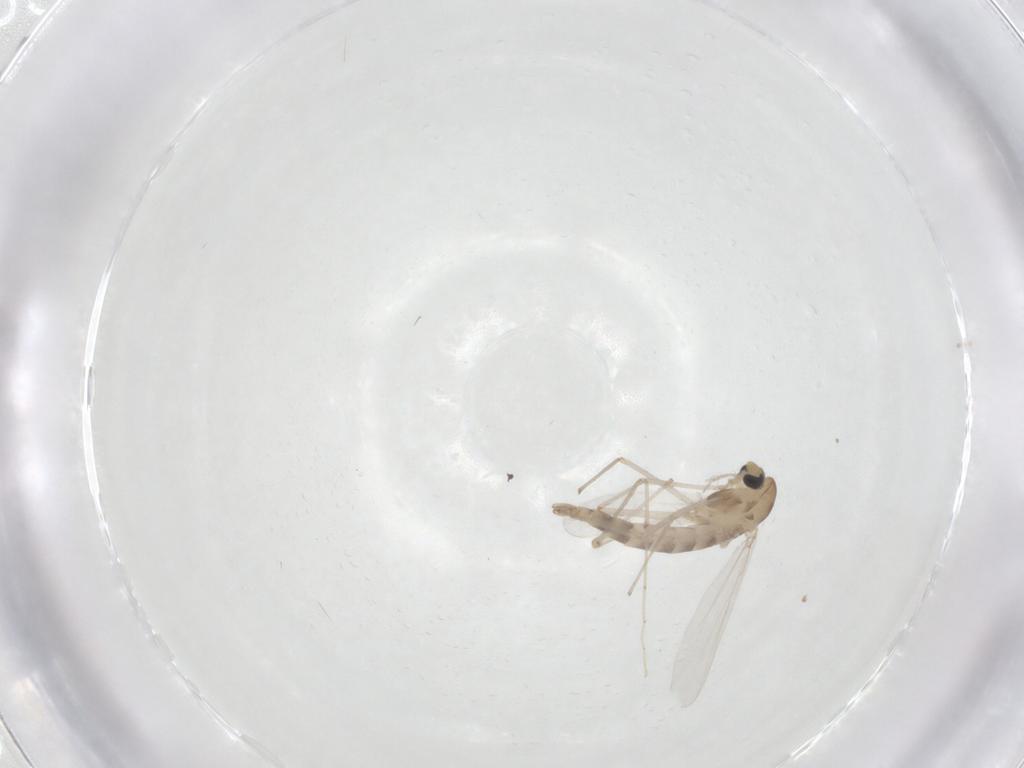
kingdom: Animalia
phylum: Arthropoda
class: Insecta
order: Diptera
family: Chironomidae
